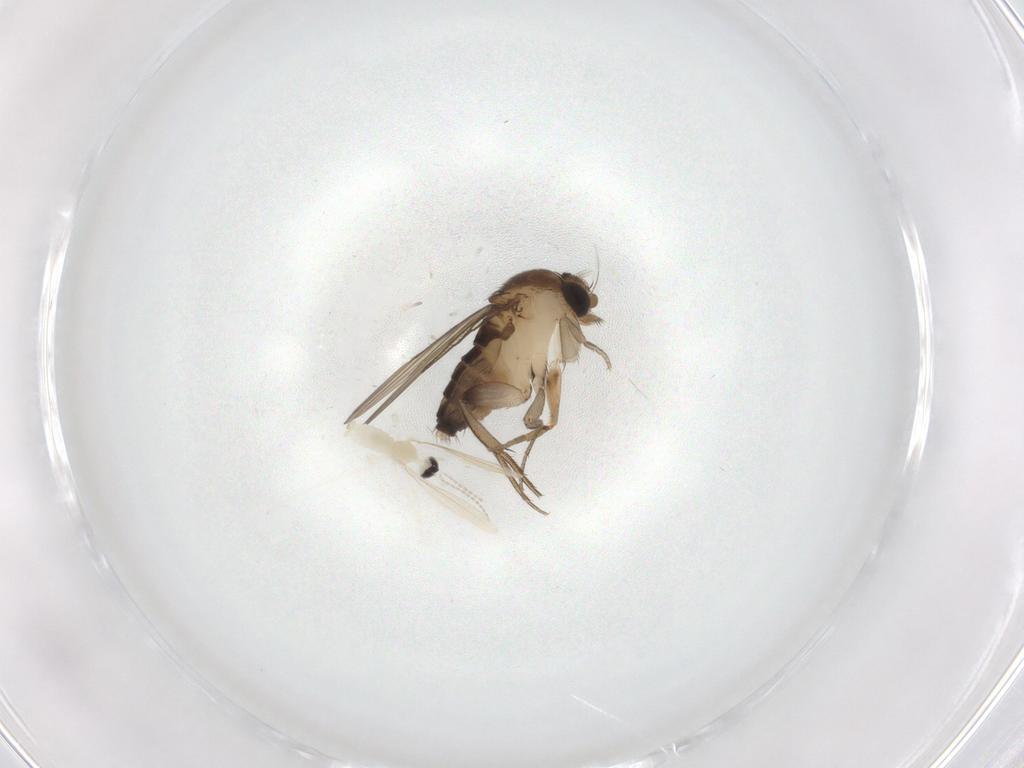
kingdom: Animalia
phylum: Arthropoda
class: Insecta
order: Diptera
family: Phoridae
